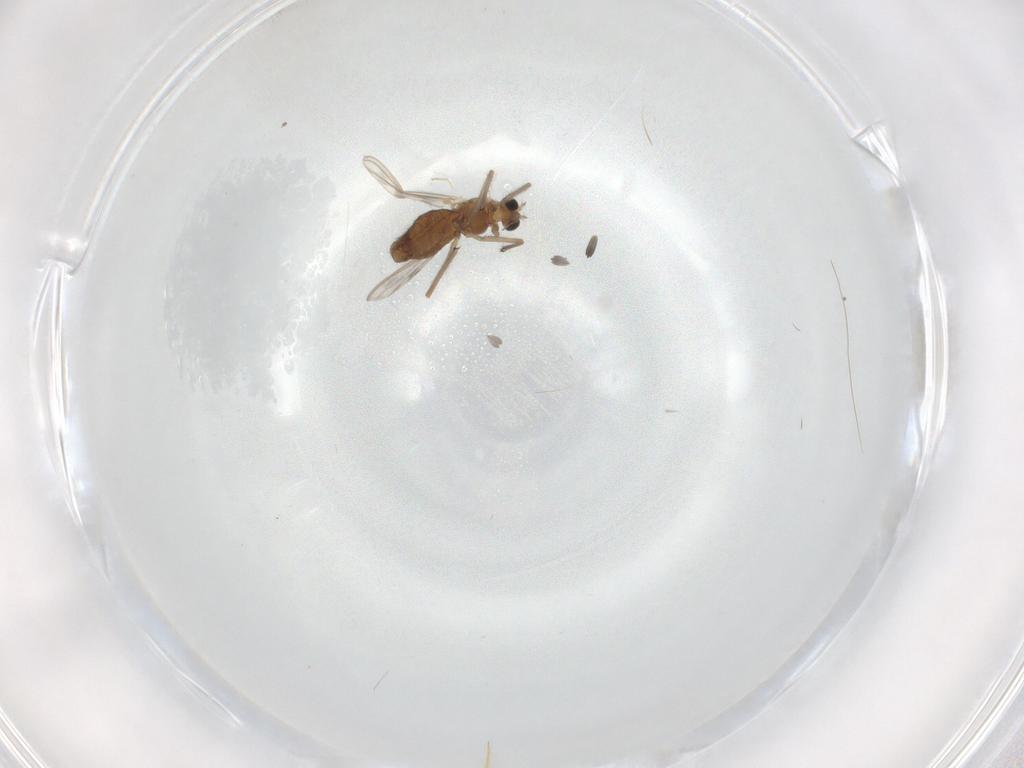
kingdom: Animalia
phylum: Arthropoda
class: Insecta
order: Diptera
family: Chironomidae
